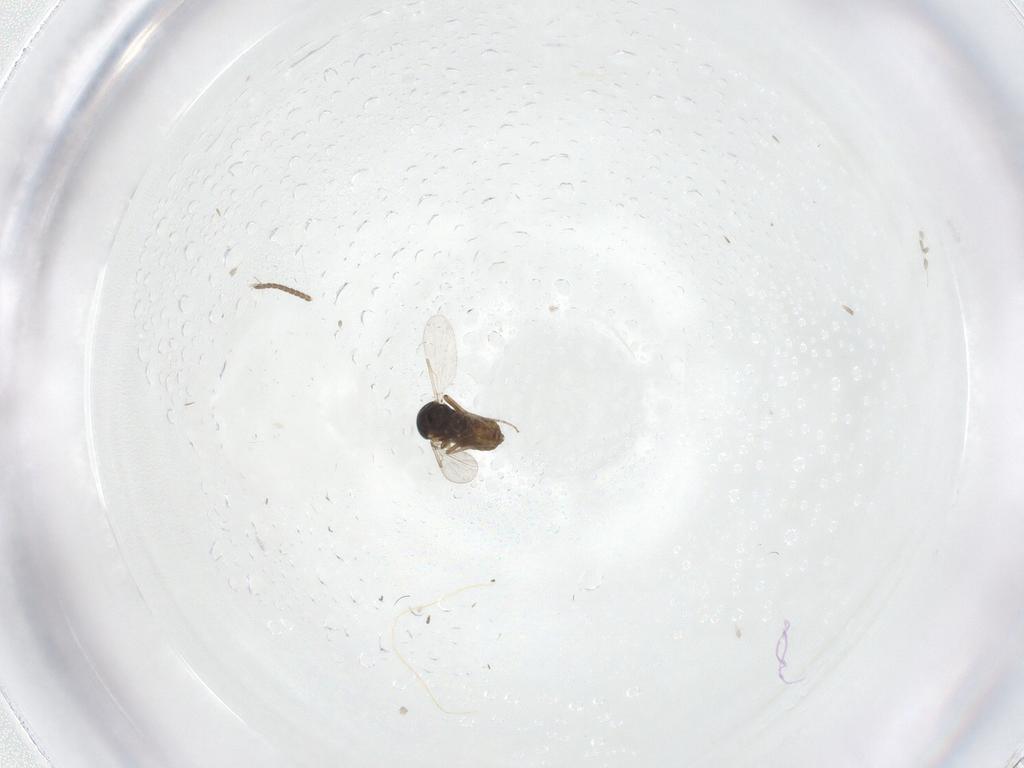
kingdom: Animalia
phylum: Arthropoda
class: Insecta
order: Diptera
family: Ceratopogonidae
